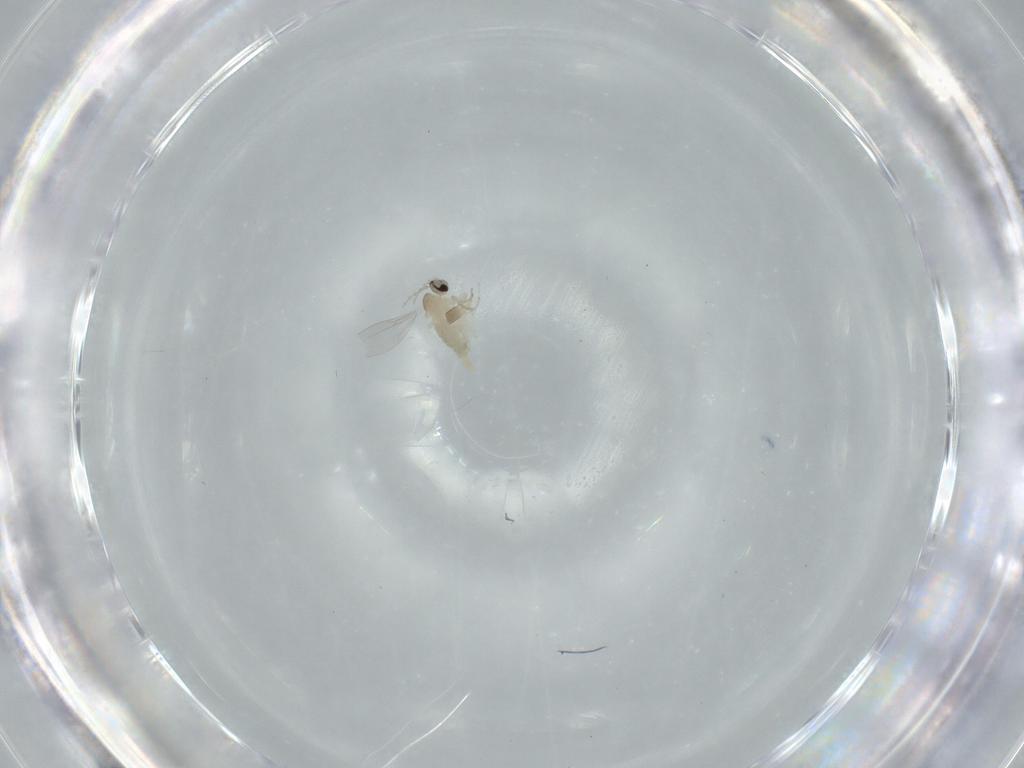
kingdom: Animalia
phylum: Arthropoda
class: Insecta
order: Diptera
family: Cecidomyiidae
